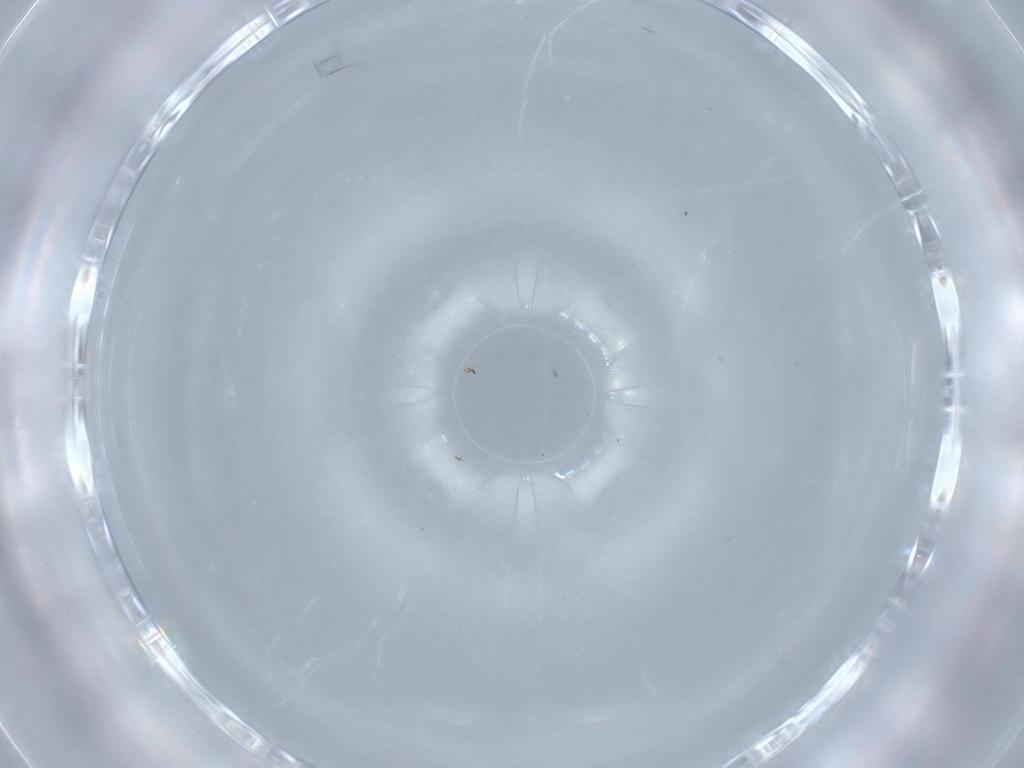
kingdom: Animalia
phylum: Arthropoda
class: Insecta
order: Hemiptera
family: Aleyrodidae
